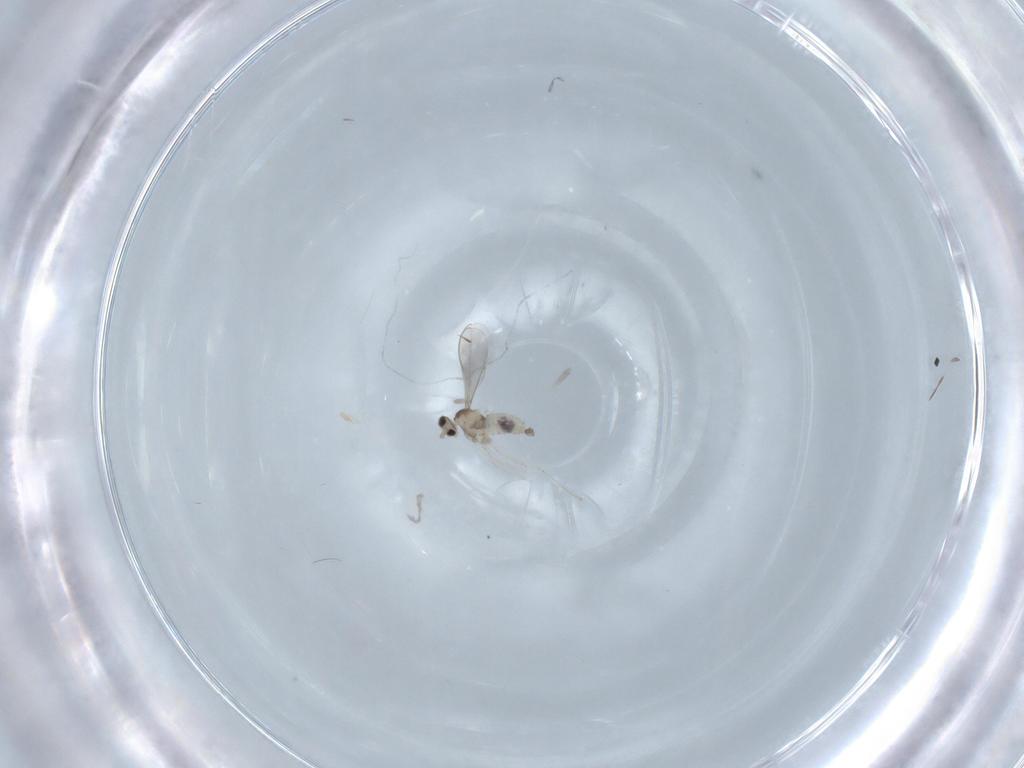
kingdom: Animalia
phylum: Arthropoda
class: Insecta
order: Diptera
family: Cecidomyiidae
